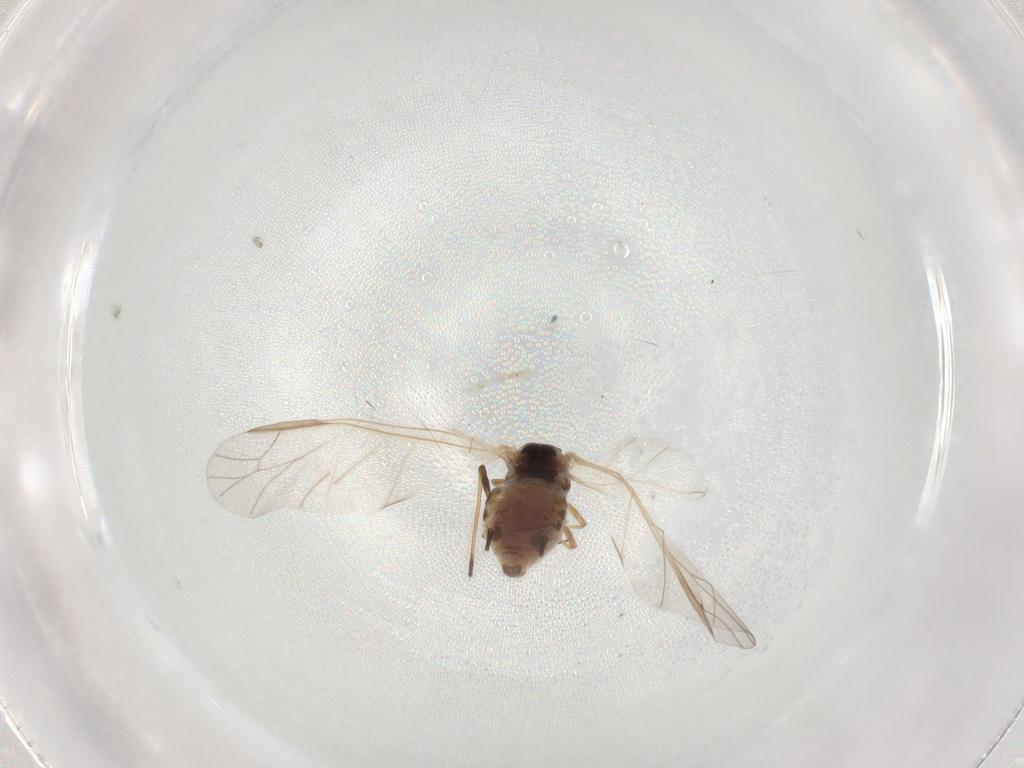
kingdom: Animalia
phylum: Arthropoda
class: Insecta
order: Hemiptera
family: Aphididae
